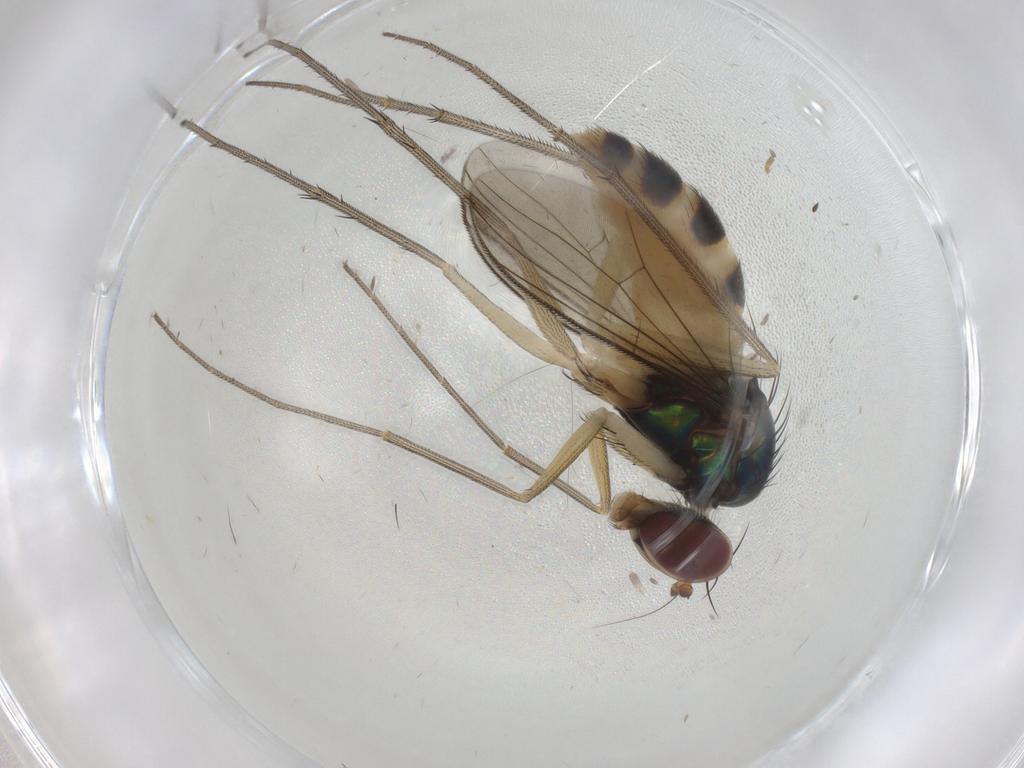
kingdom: Animalia
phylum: Arthropoda
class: Insecta
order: Diptera
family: Dolichopodidae
